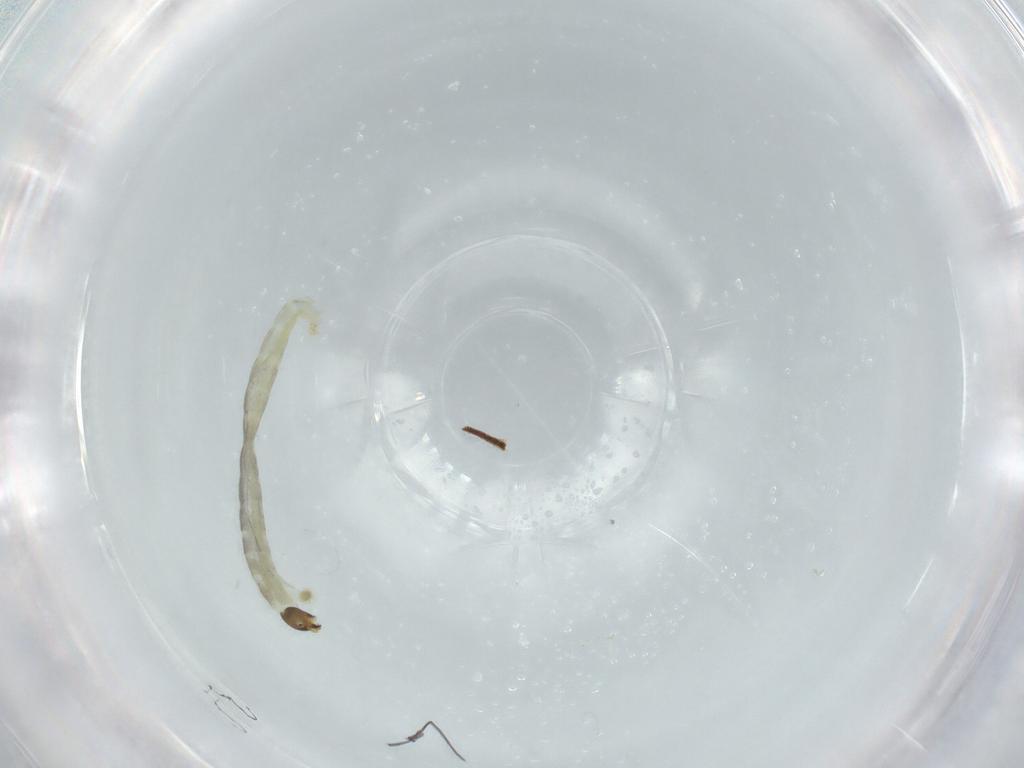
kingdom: Animalia
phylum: Arthropoda
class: Insecta
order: Diptera
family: Chironomidae
